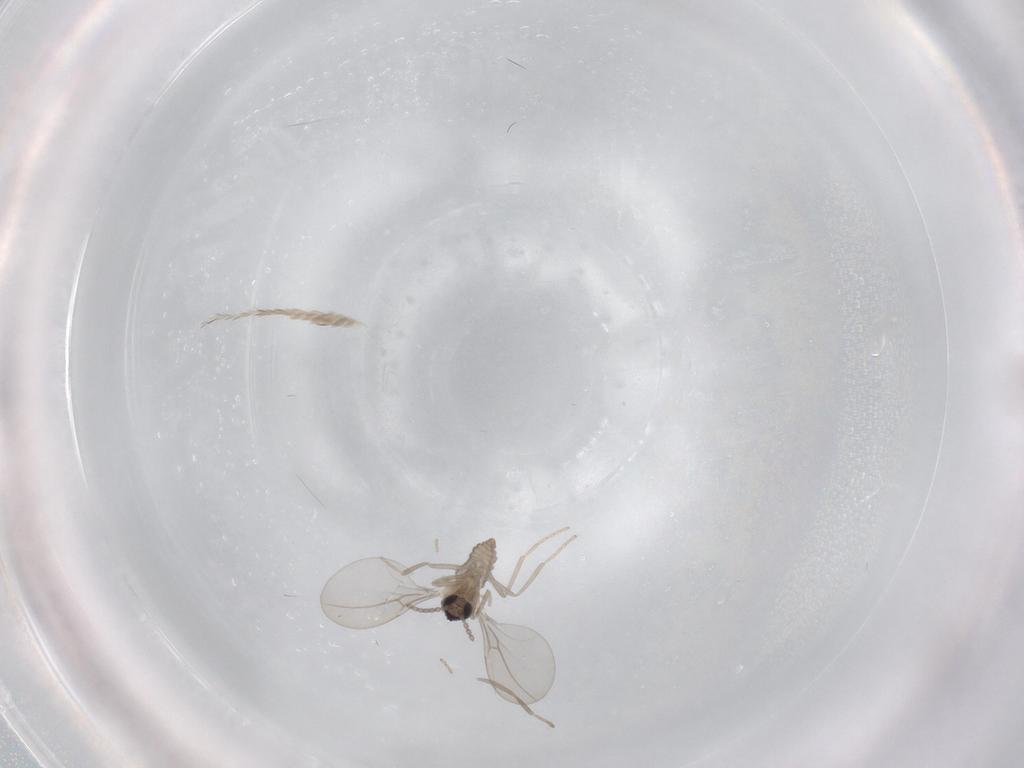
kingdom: Animalia
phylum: Arthropoda
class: Insecta
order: Diptera
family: Cecidomyiidae
